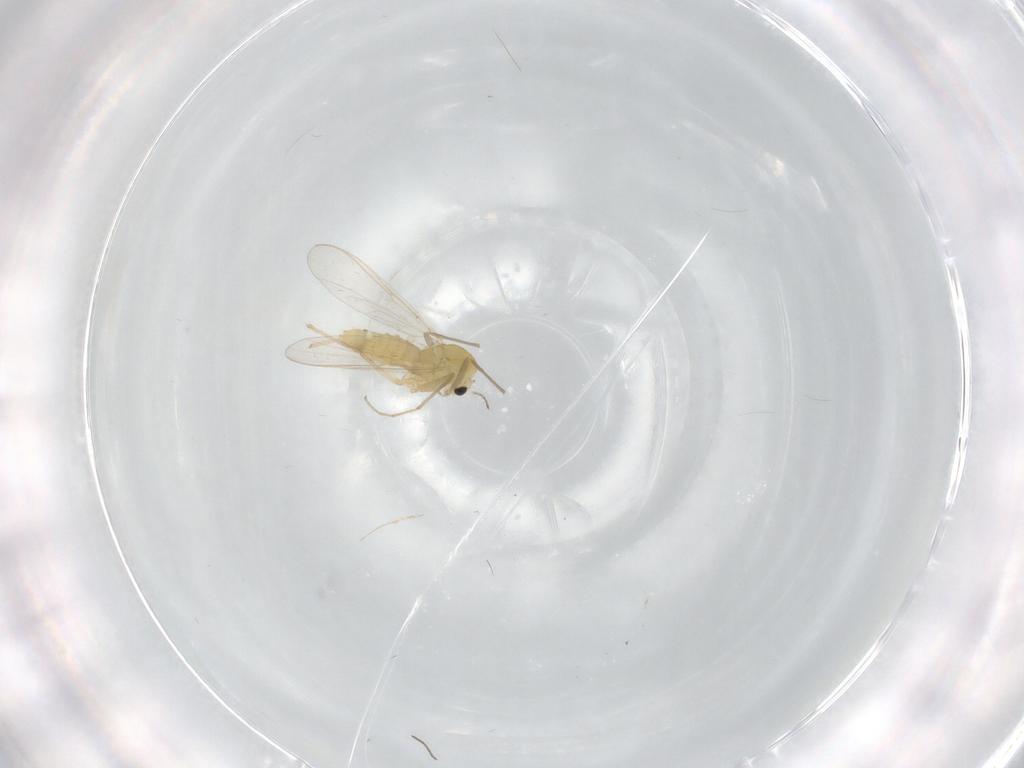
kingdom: Animalia
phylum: Arthropoda
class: Insecta
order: Diptera
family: Chironomidae
